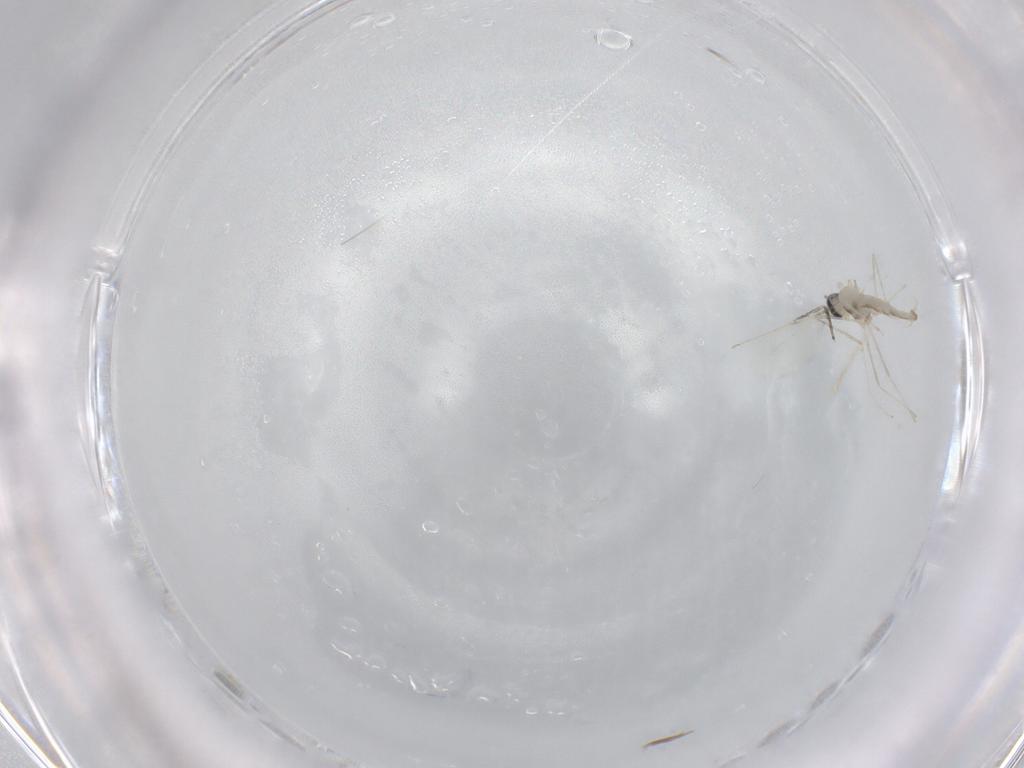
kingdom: Animalia
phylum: Arthropoda
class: Insecta
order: Diptera
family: Cecidomyiidae
